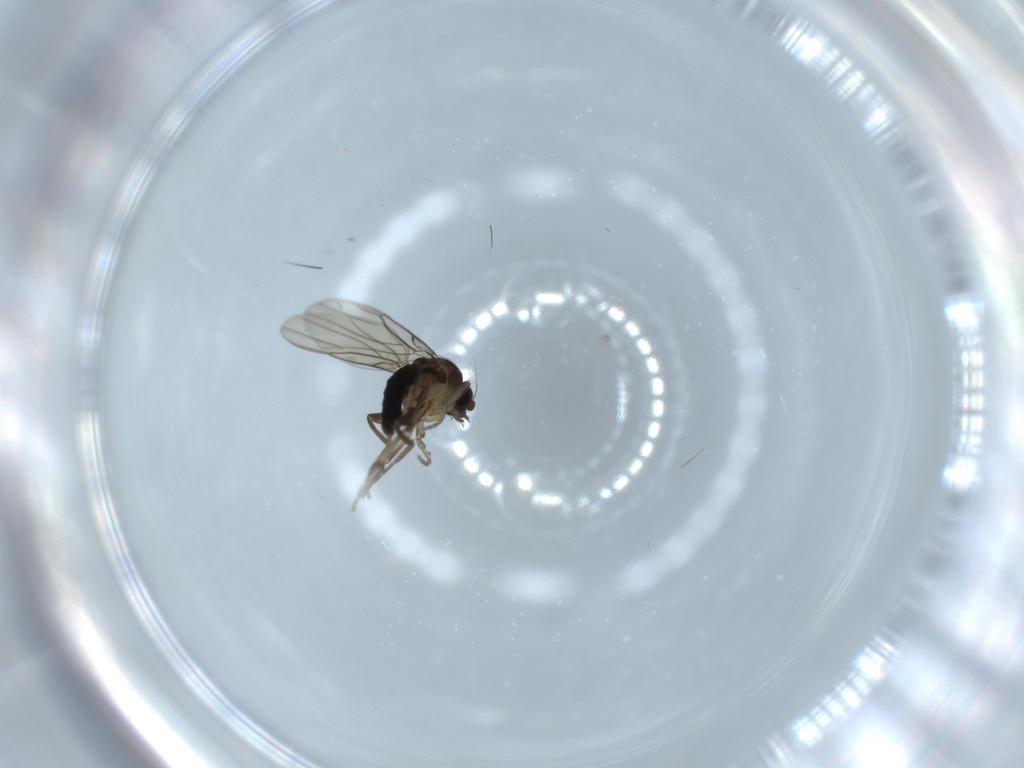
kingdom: Animalia
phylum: Arthropoda
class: Insecta
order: Diptera
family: Phoridae
